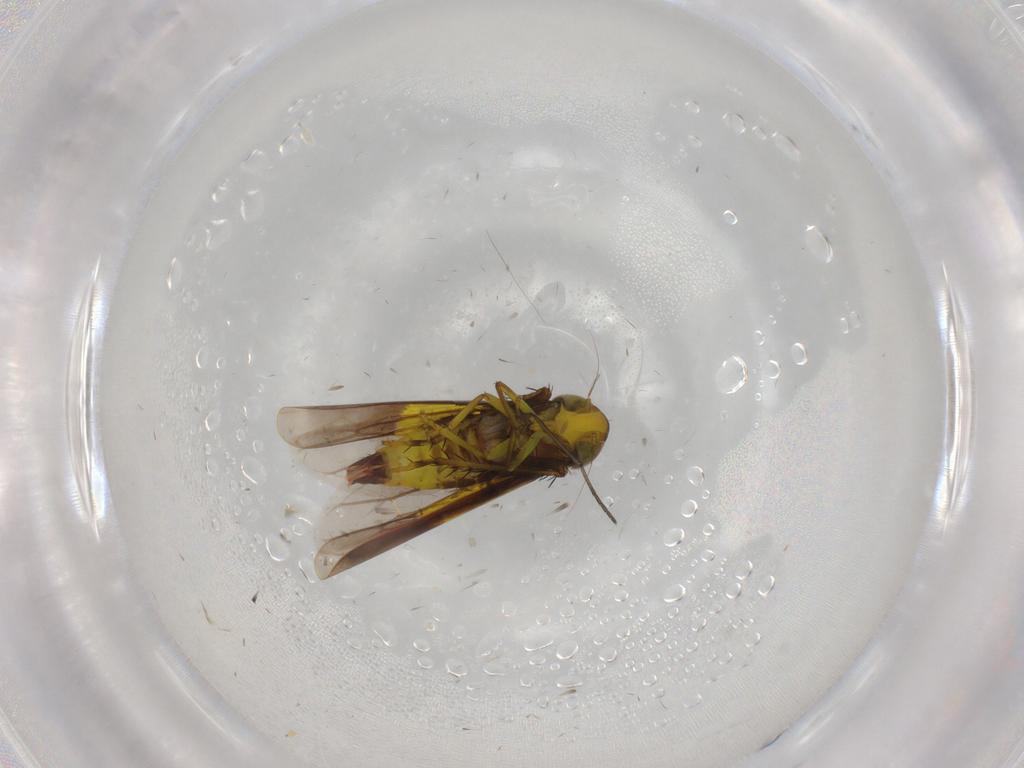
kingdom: Animalia
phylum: Arthropoda
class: Insecta
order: Hemiptera
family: Cicadellidae
